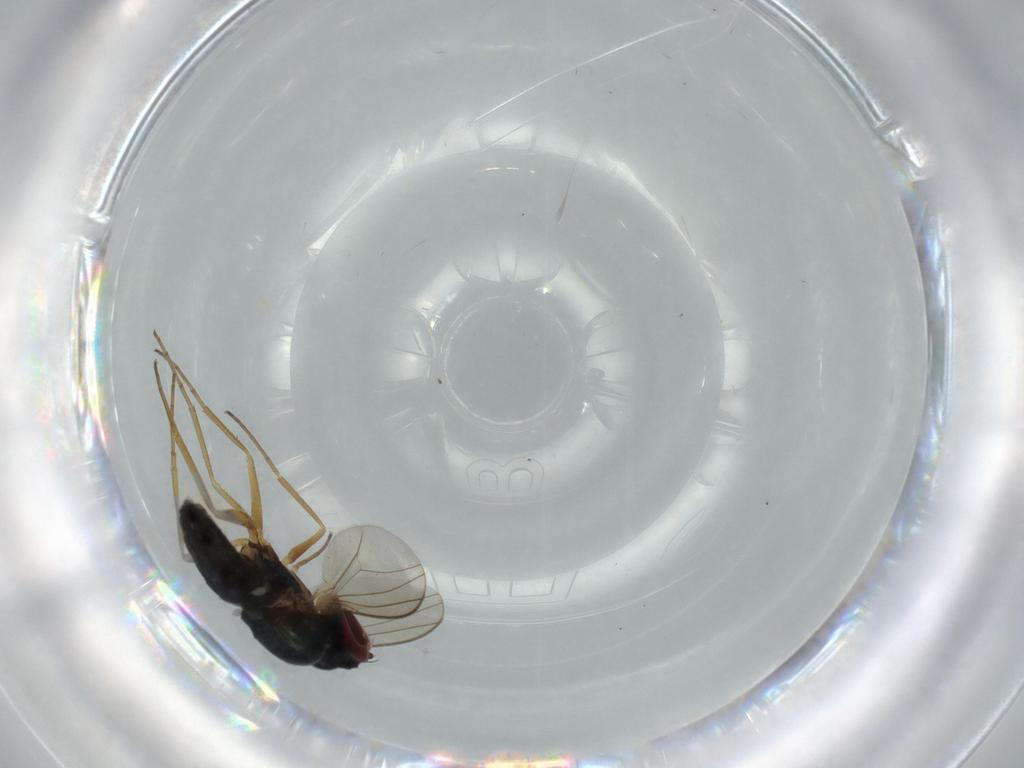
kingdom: Animalia
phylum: Arthropoda
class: Insecta
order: Diptera
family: Dolichopodidae
